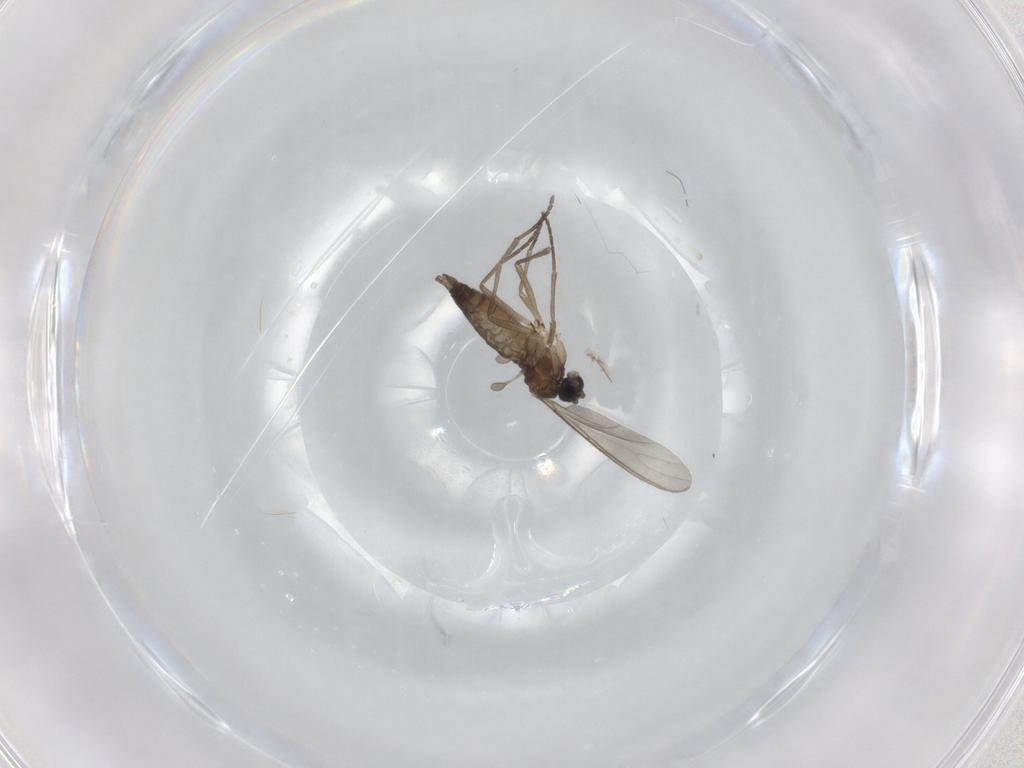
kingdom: Animalia
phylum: Arthropoda
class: Insecta
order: Diptera
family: Sciaridae
